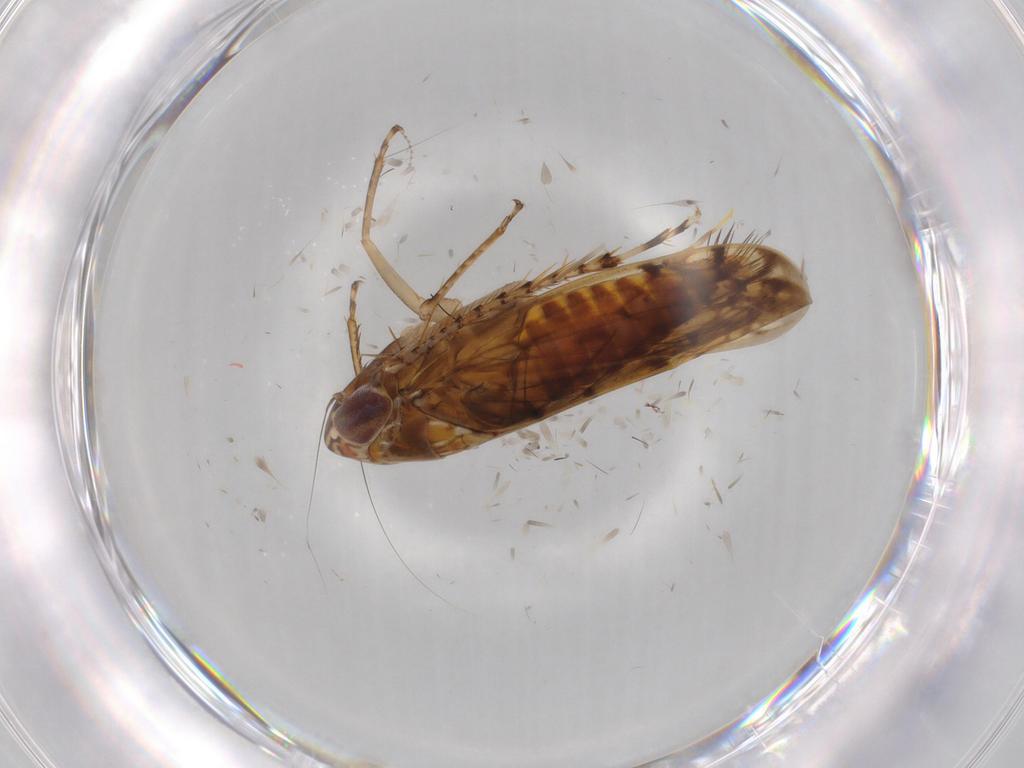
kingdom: Animalia
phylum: Arthropoda
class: Insecta
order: Hemiptera
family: Cicadellidae
